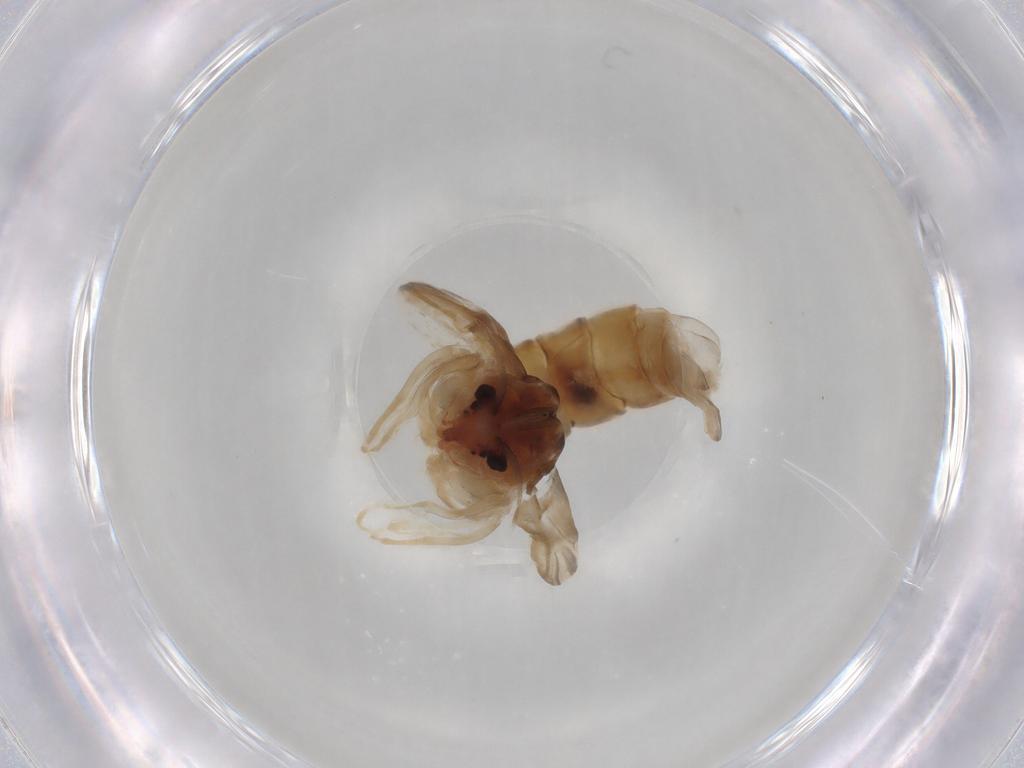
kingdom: Animalia
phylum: Arthropoda
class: Insecta
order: Diptera
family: Chironomidae
